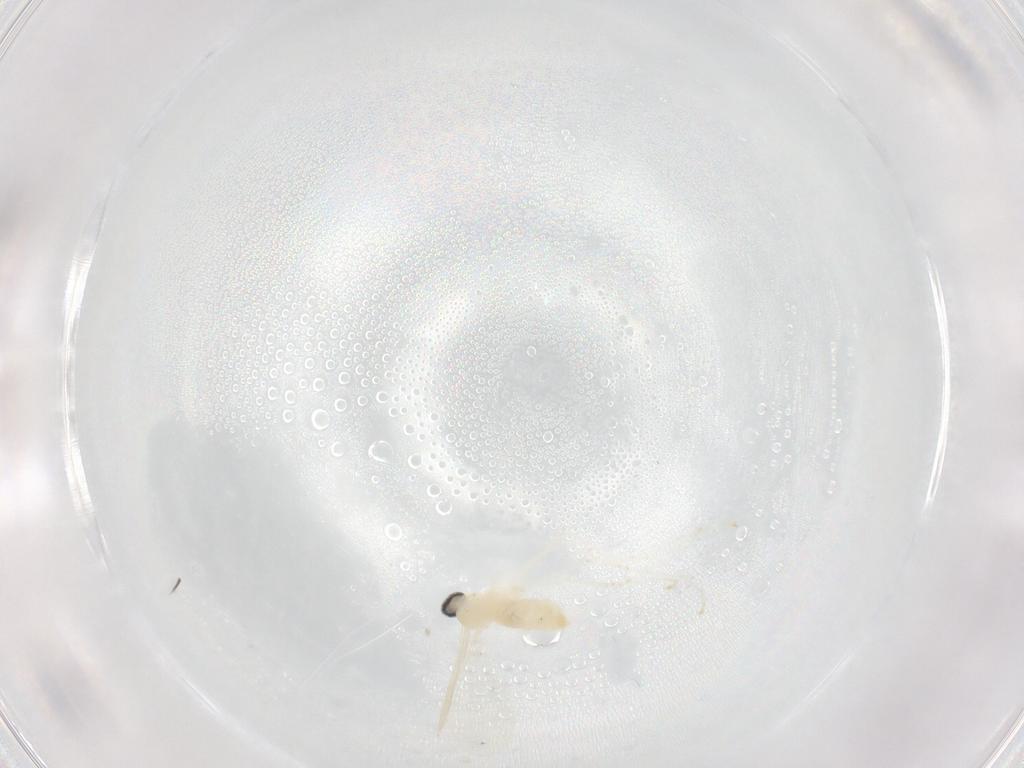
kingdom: Animalia
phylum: Arthropoda
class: Insecta
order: Diptera
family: Cecidomyiidae
